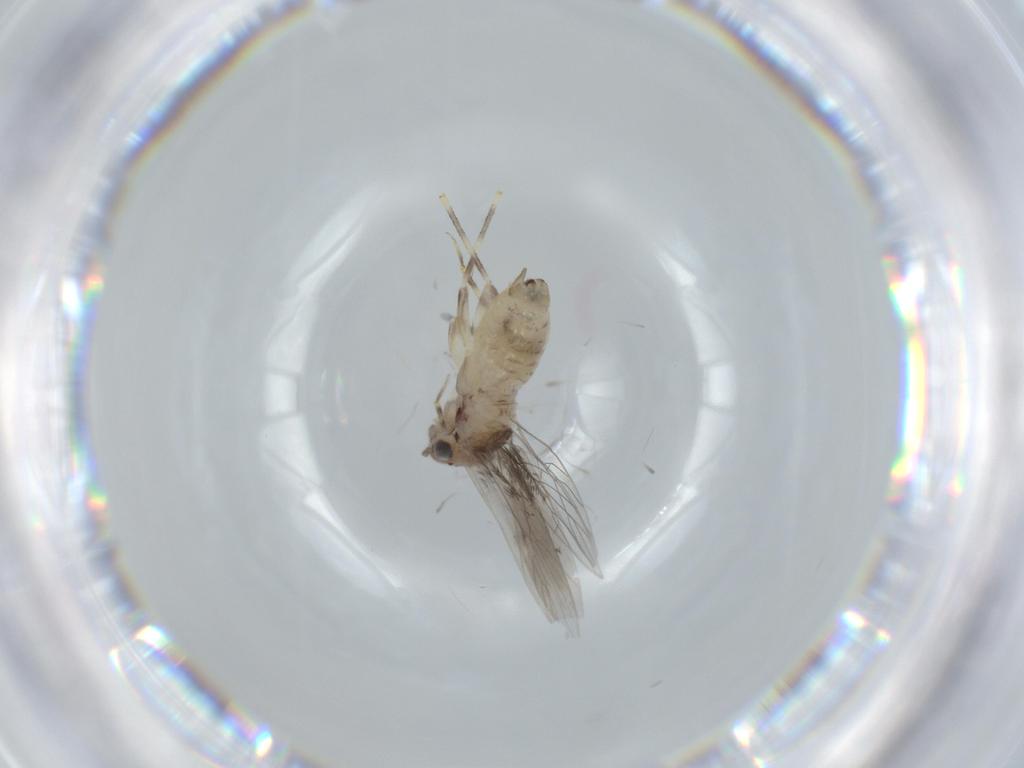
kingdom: Animalia
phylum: Arthropoda
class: Insecta
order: Psocodea
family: Lepidopsocidae
